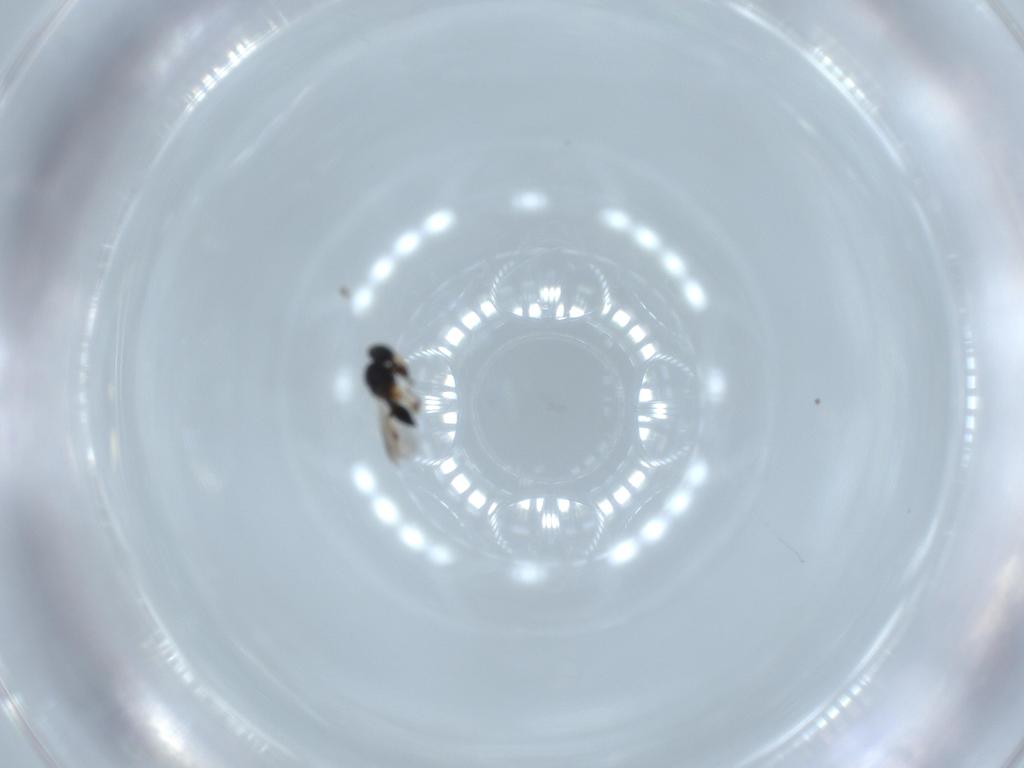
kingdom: Animalia
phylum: Arthropoda
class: Insecta
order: Hymenoptera
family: Platygastridae
